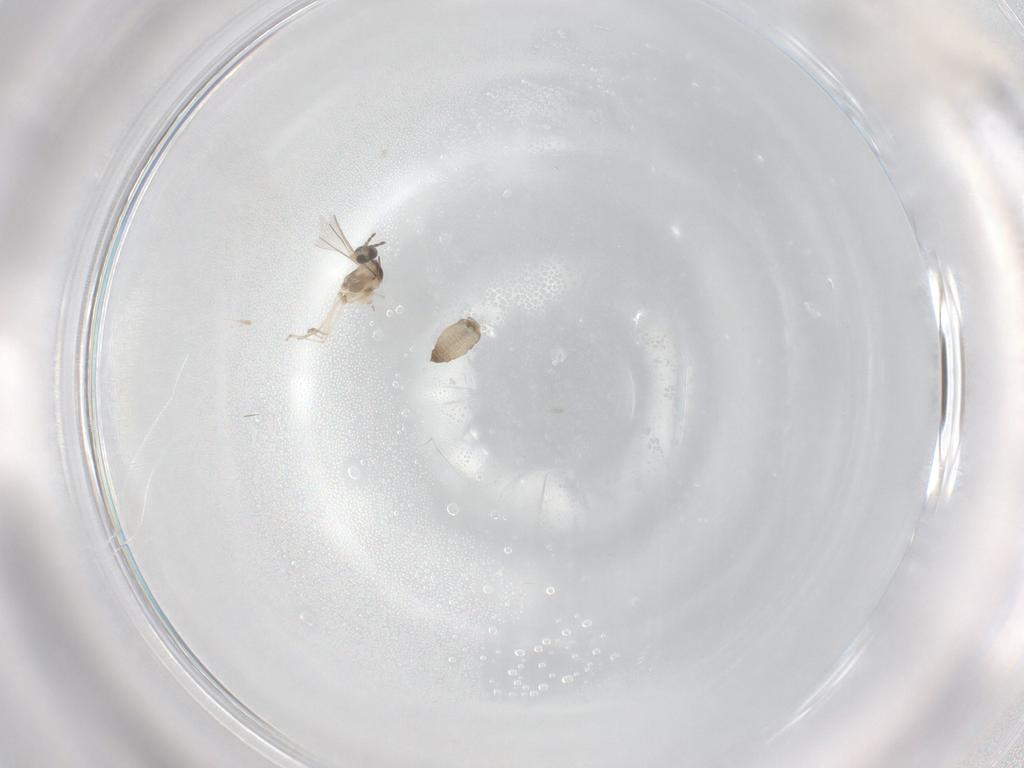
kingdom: Animalia
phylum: Arthropoda
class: Insecta
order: Diptera
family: Cecidomyiidae
